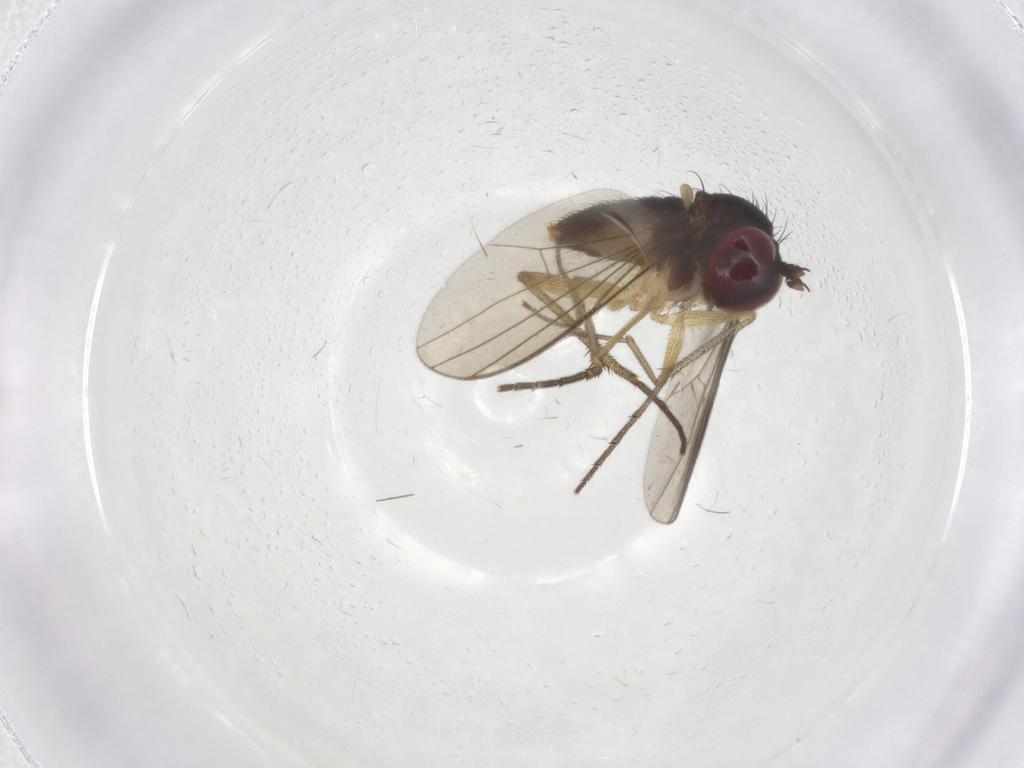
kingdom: Animalia
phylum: Arthropoda
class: Insecta
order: Diptera
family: Dolichopodidae
